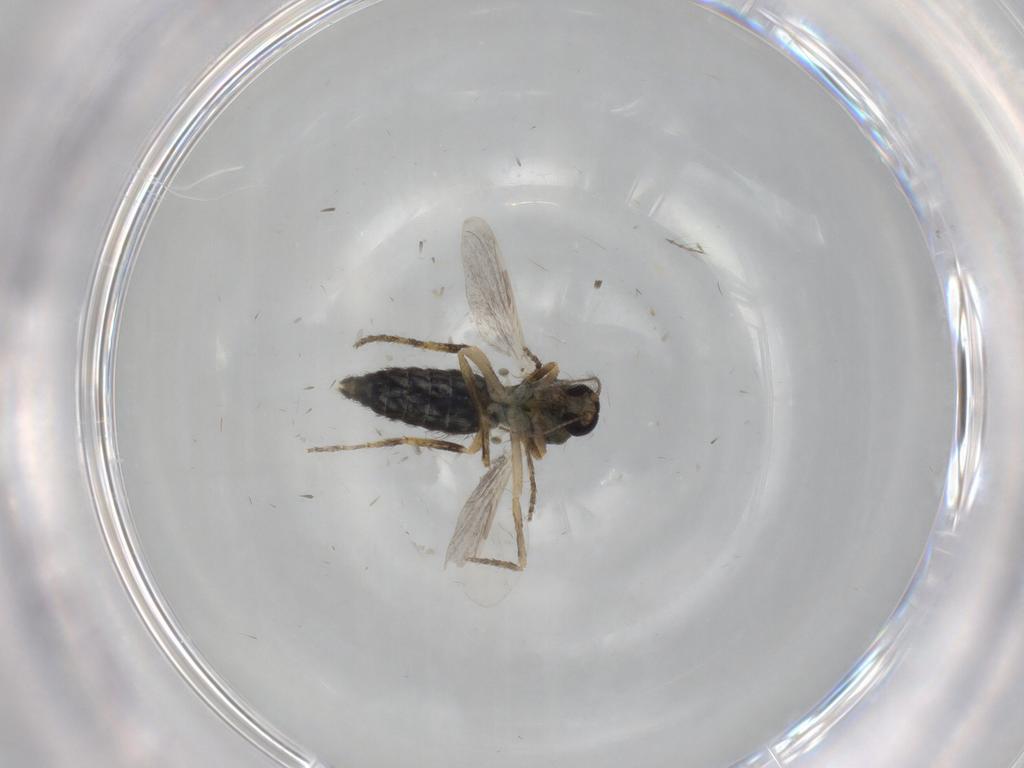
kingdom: Animalia
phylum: Arthropoda
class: Insecta
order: Diptera
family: Ceratopogonidae
